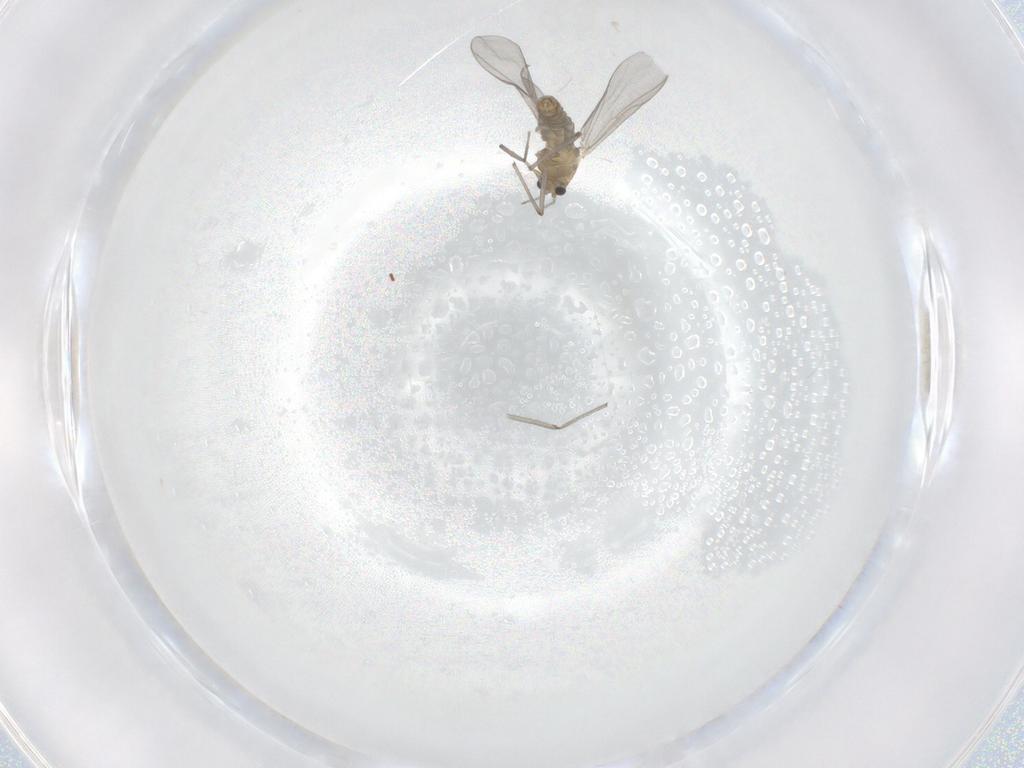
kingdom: Animalia
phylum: Arthropoda
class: Insecta
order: Diptera
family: Chironomidae
